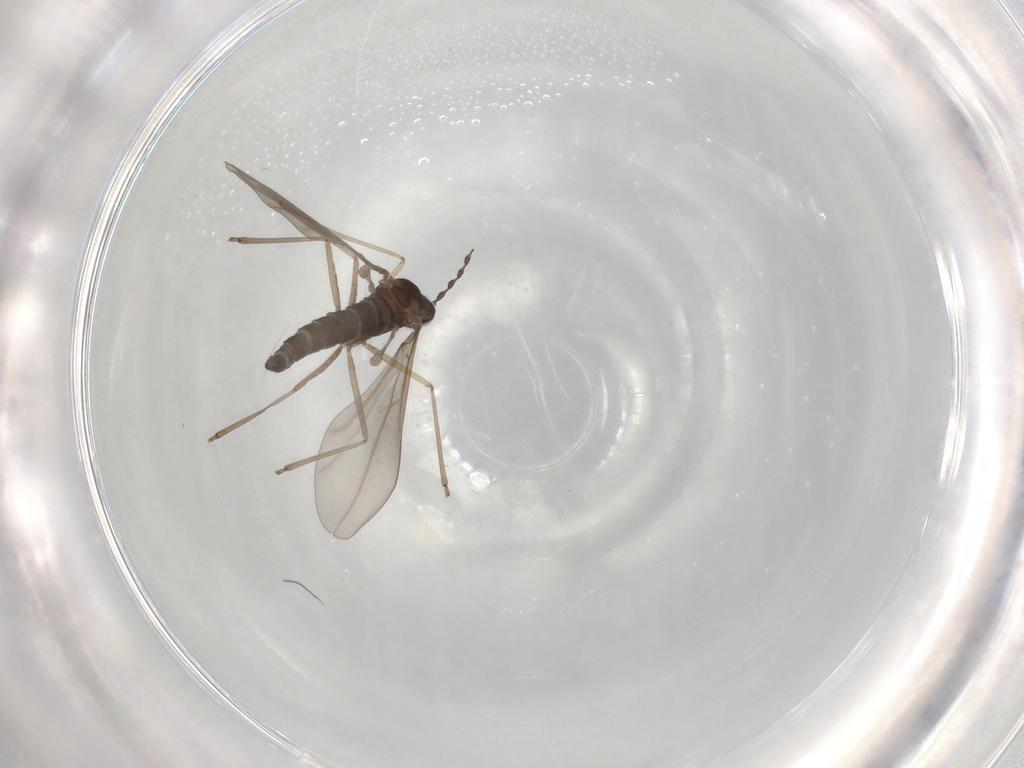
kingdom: Animalia
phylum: Arthropoda
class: Insecta
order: Diptera
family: Cecidomyiidae
